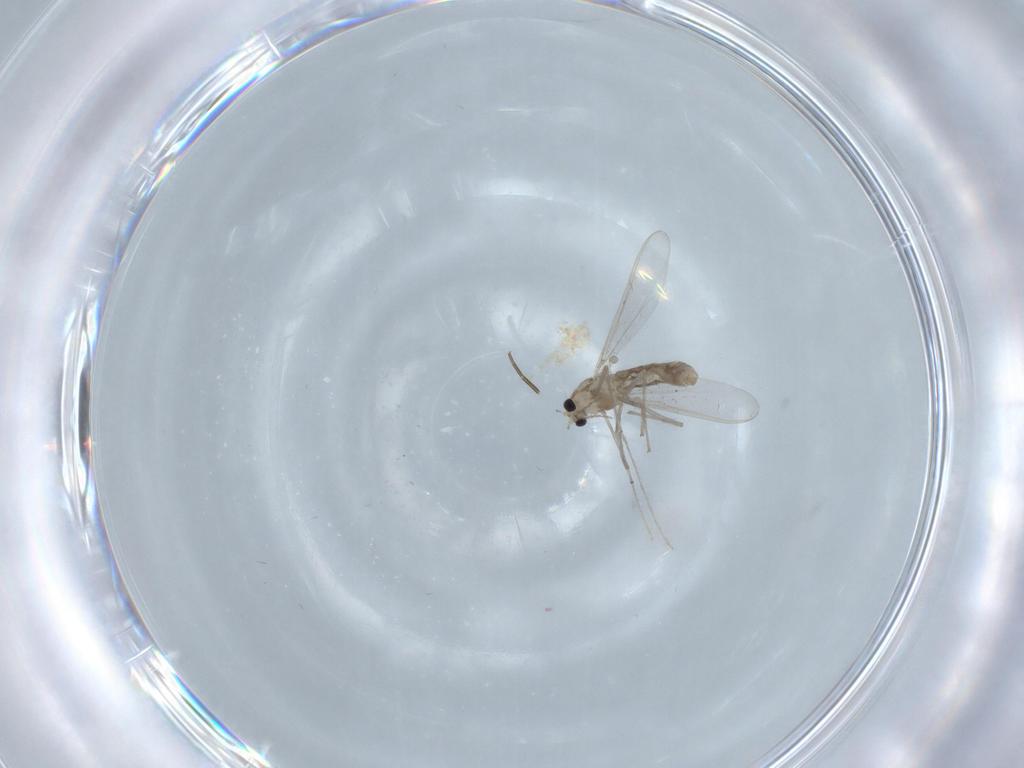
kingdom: Animalia
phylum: Arthropoda
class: Insecta
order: Diptera
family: Chironomidae
